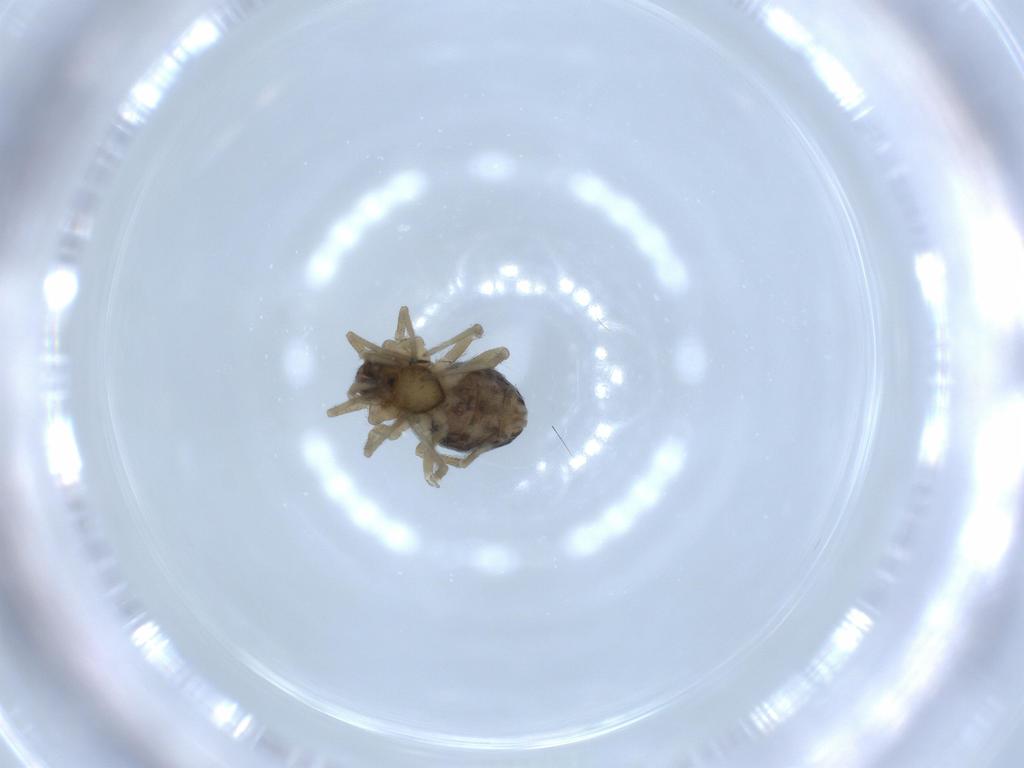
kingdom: Animalia
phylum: Arthropoda
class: Arachnida
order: Araneae
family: Dictynidae
